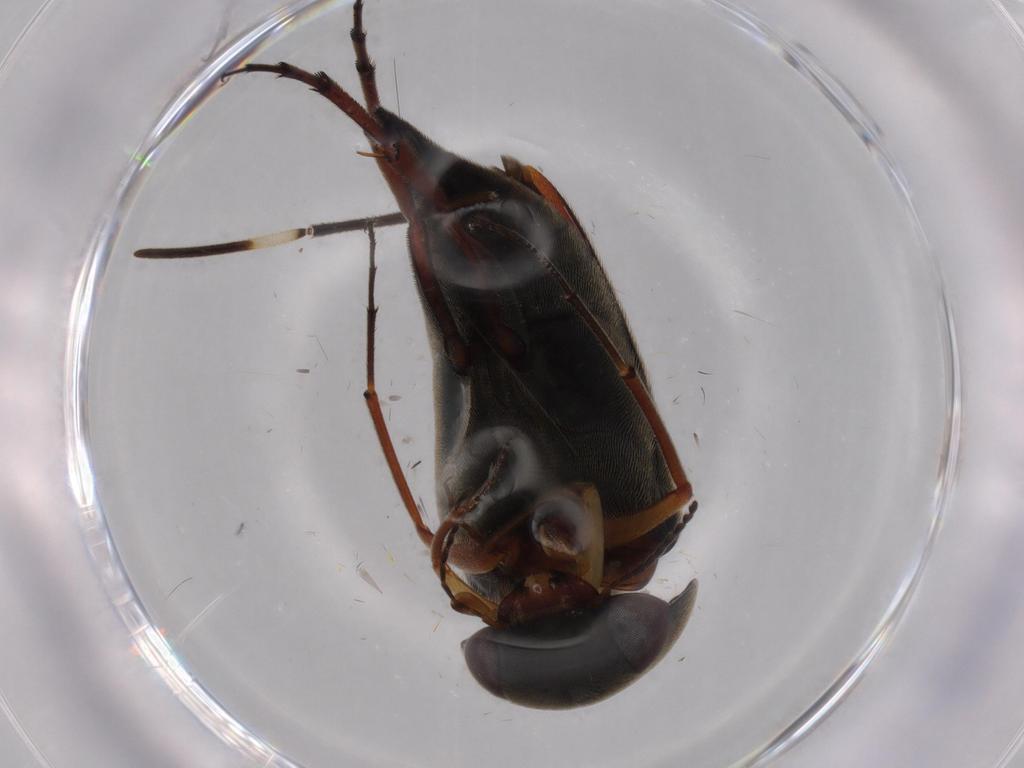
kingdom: Animalia
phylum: Arthropoda
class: Insecta
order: Coleoptera
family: Mordellidae
